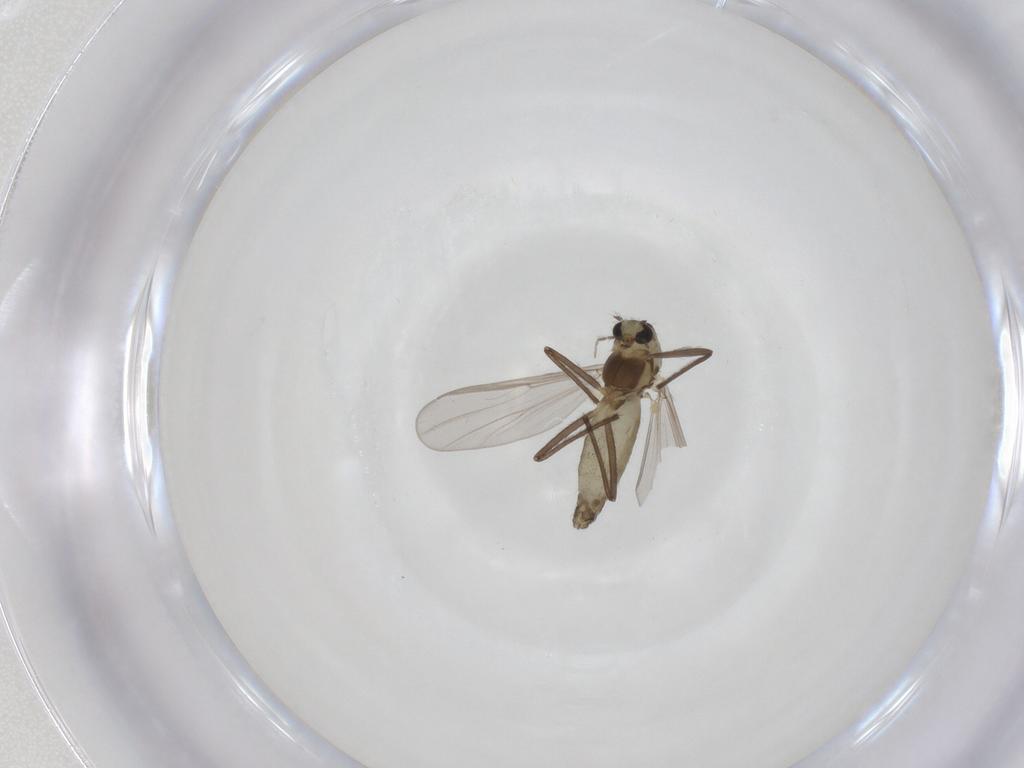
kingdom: Animalia
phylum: Arthropoda
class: Insecta
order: Diptera
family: Chironomidae
